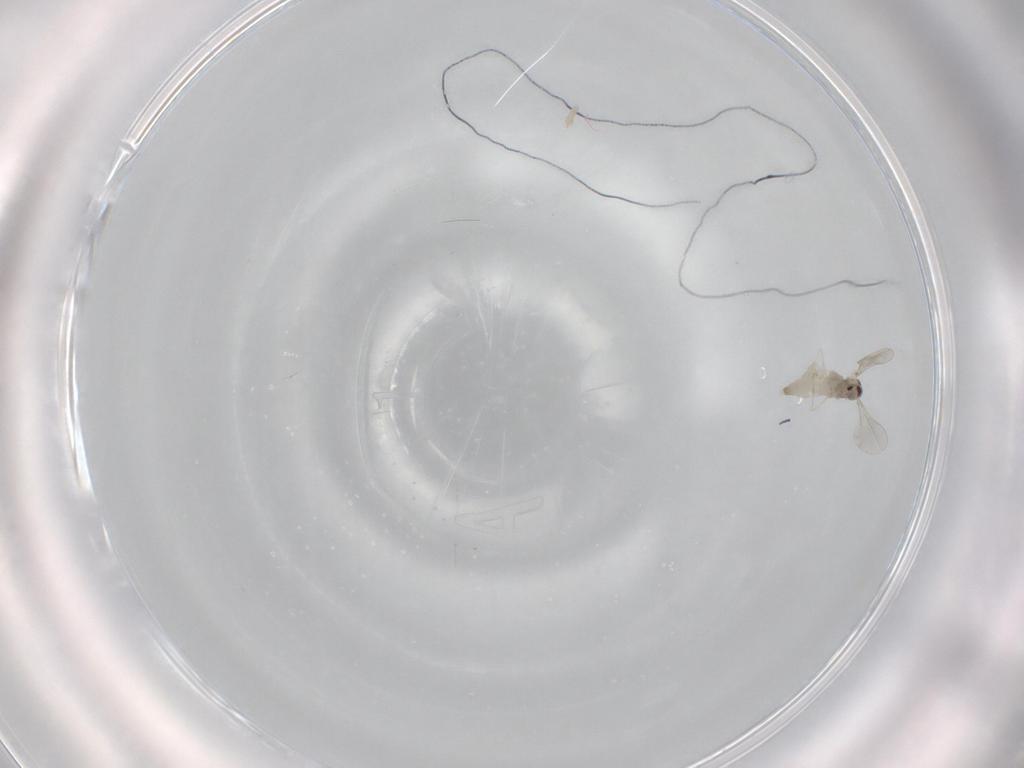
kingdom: Animalia
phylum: Arthropoda
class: Insecta
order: Diptera
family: Cecidomyiidae
